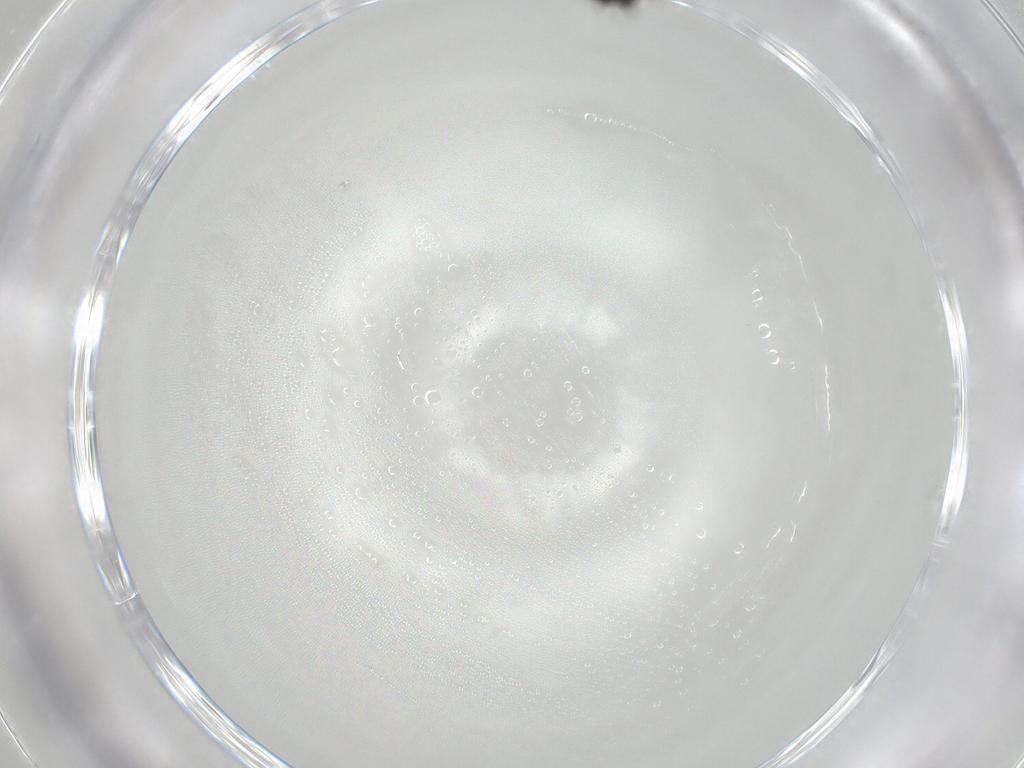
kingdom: Animalia
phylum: Arthropoda
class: Insecta
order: Hymenoptera
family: Scelionidae
